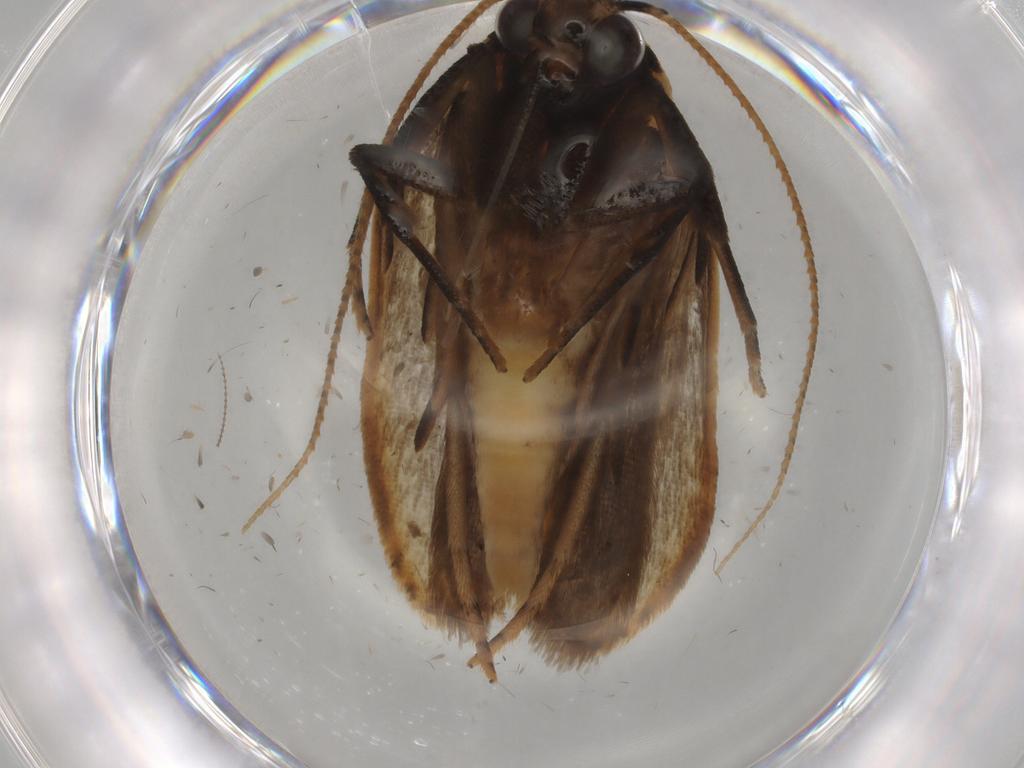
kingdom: Animalia
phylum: Arthropoda
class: Insecta
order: Lepidoptera
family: Gelechiidae
